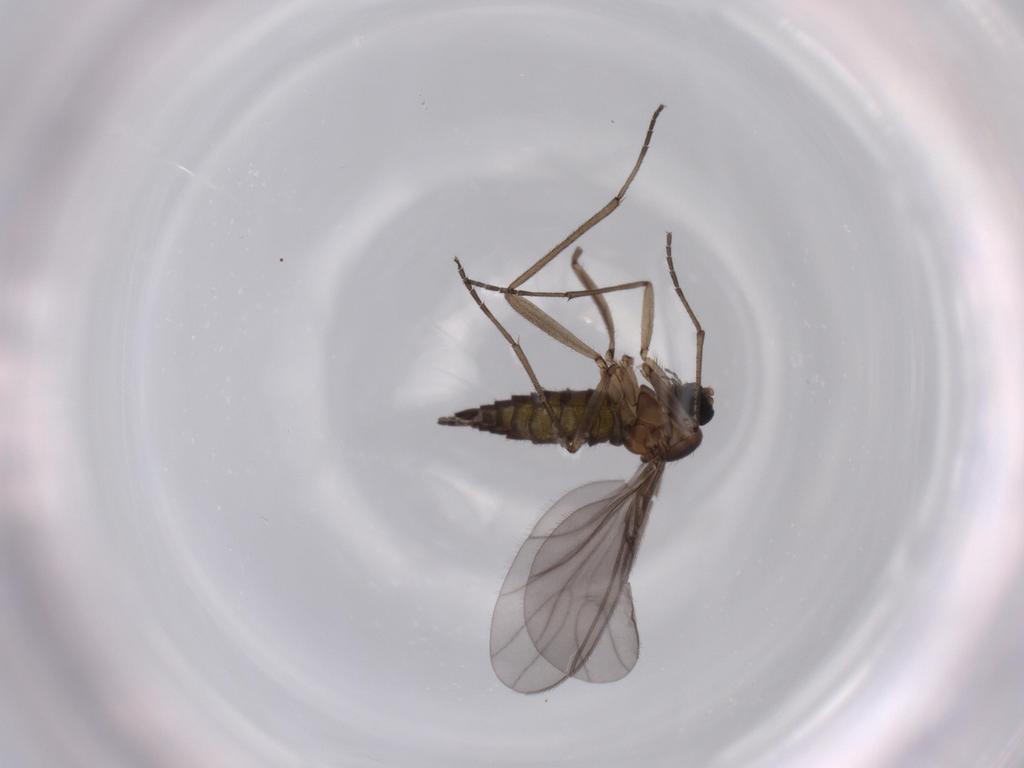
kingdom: Animalia
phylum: Arthropoda
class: Insecta
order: Diptera
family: Sciaridae
